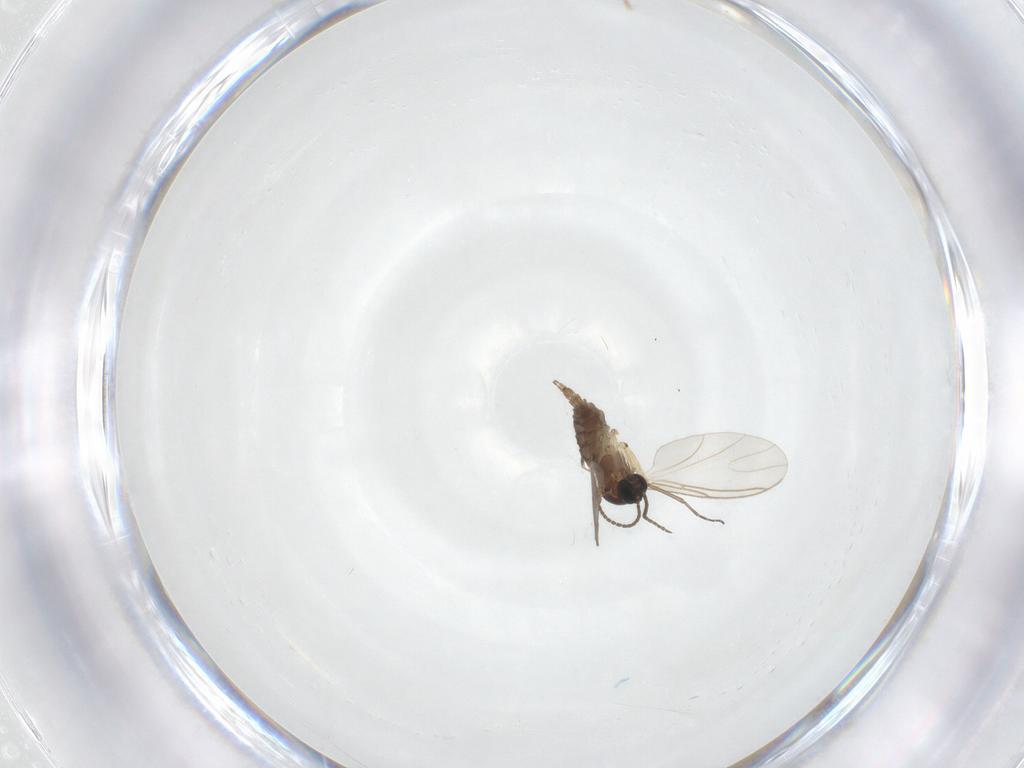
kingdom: Animalia
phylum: Arthropoda
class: Insecta
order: Diptera
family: Sciaridae
